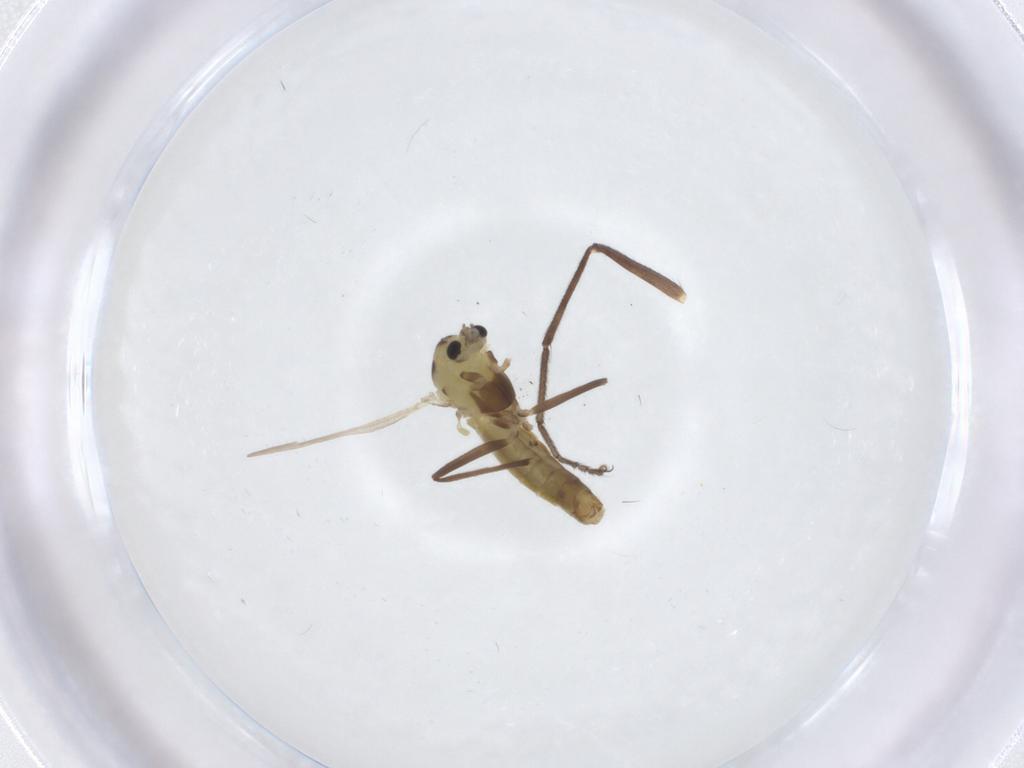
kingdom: Animalia
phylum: Arthropoda
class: Insecta
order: Diptera
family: Chironomidae
